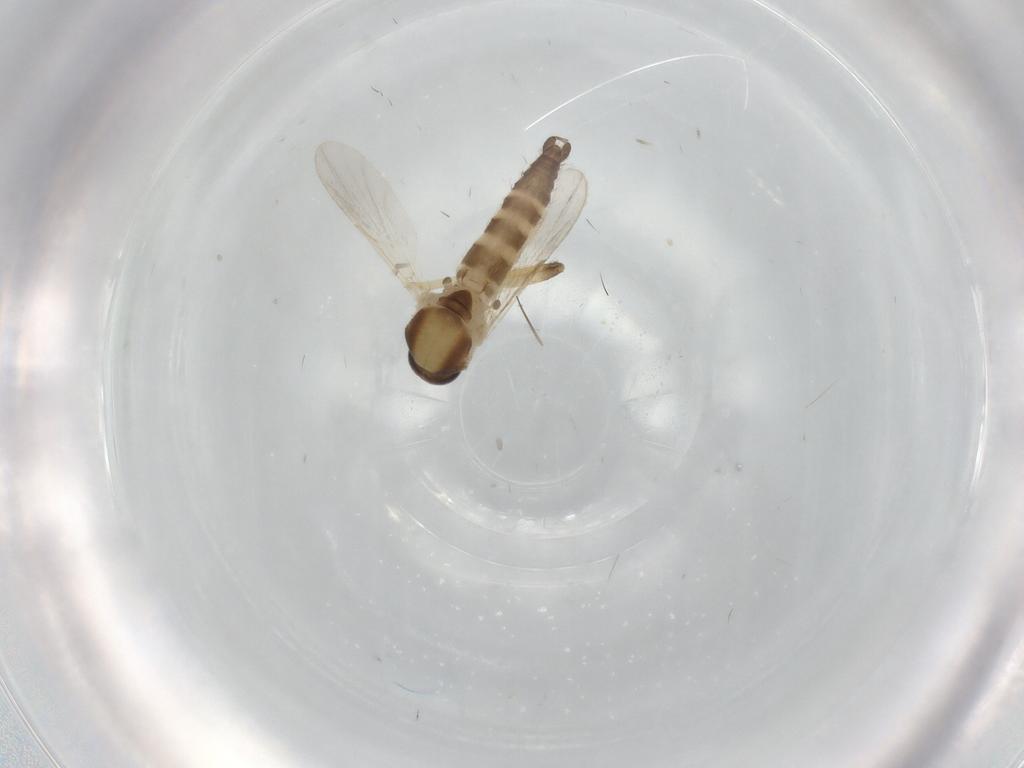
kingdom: Animalia
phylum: Arthropoda
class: Insecta
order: Diptera
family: Ceratopogonidae
